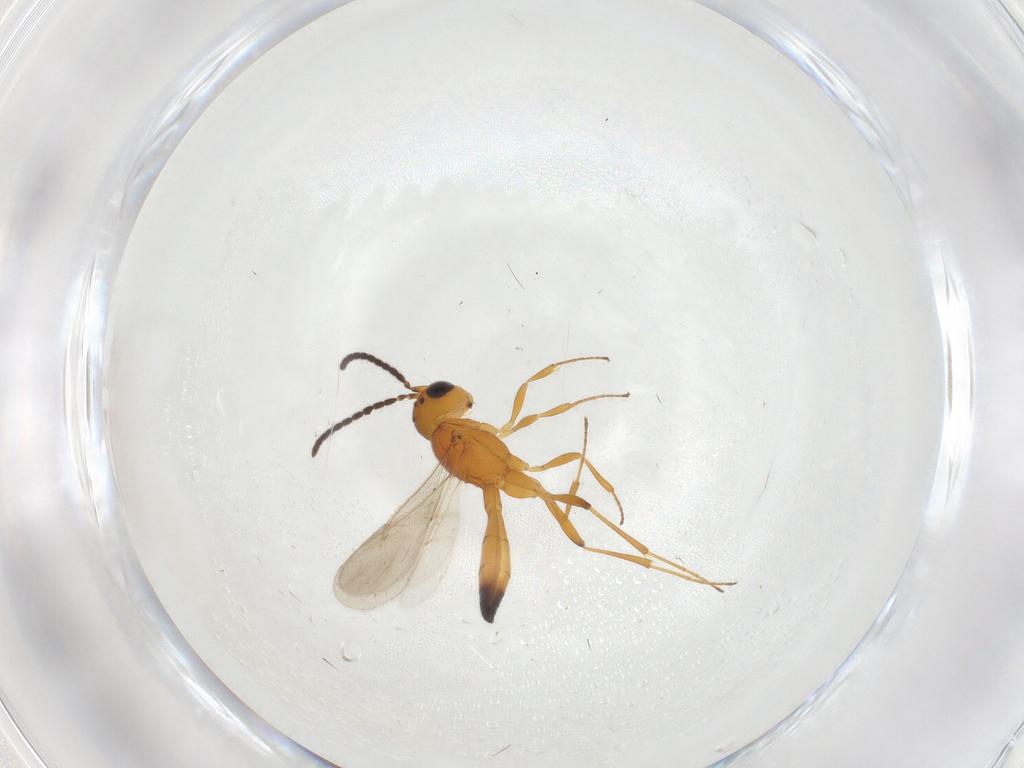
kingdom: Animalia
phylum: Arthropoda
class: Insecta
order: Hymenoptera
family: Scelionidae
